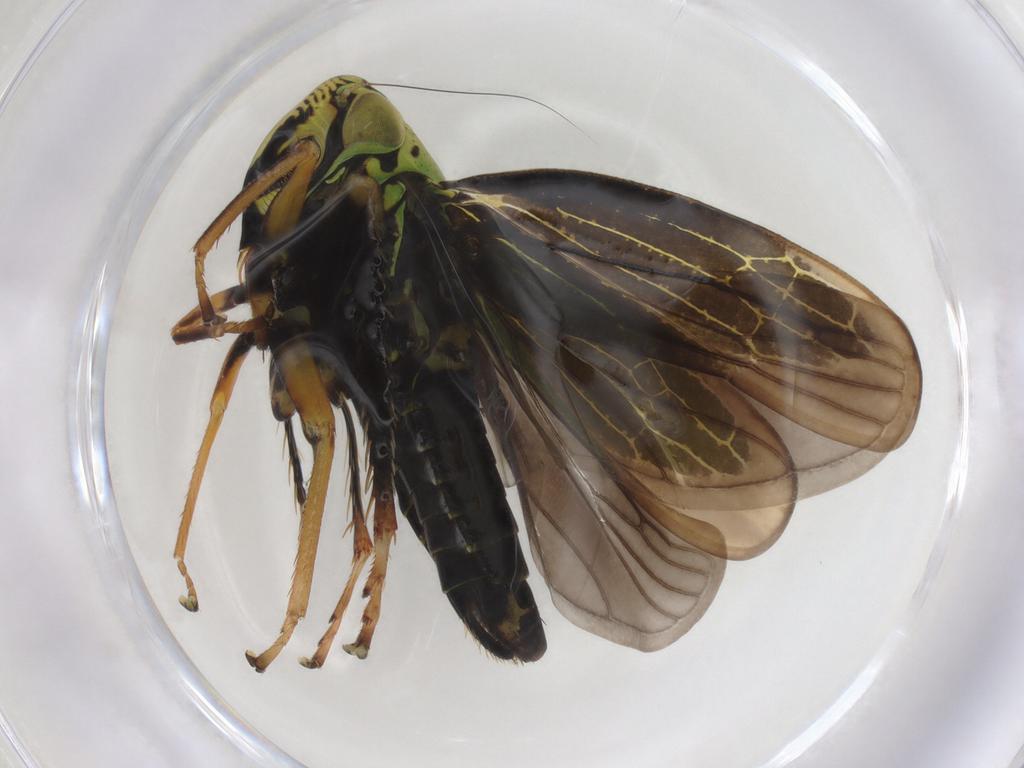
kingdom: Animalia
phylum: Arthropoda
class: Insecta
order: Hemiptera
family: Cicadellidae
